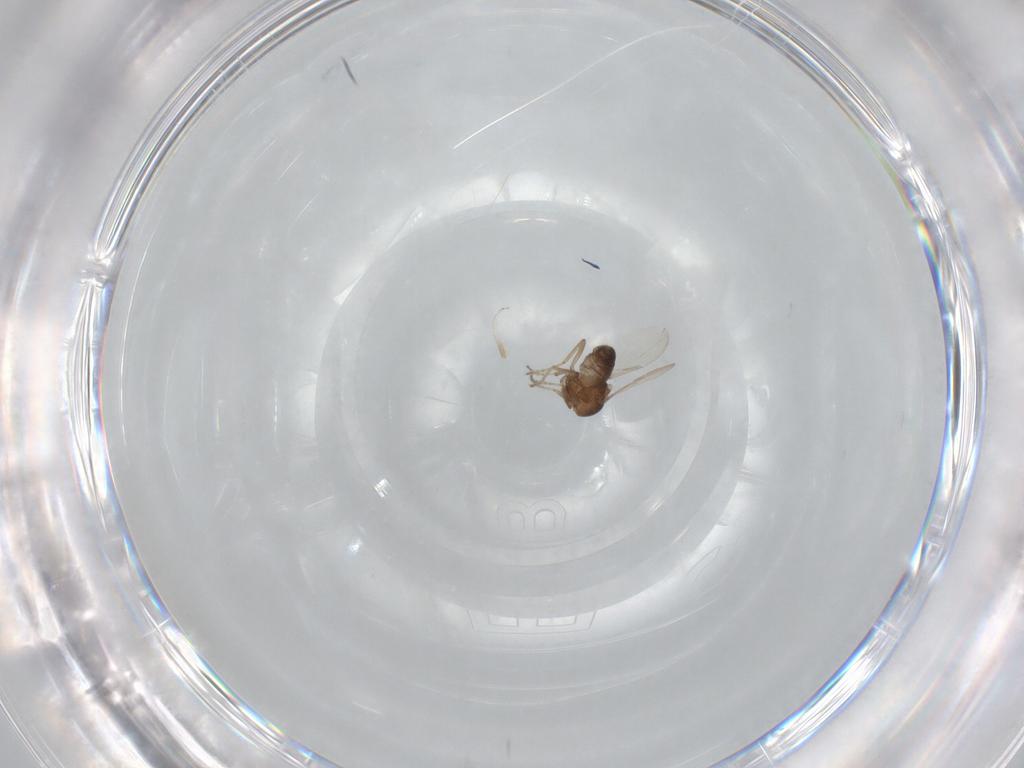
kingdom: Animalia
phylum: Arthropoda
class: Insecta
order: Diptera
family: Ceratopogonidae
